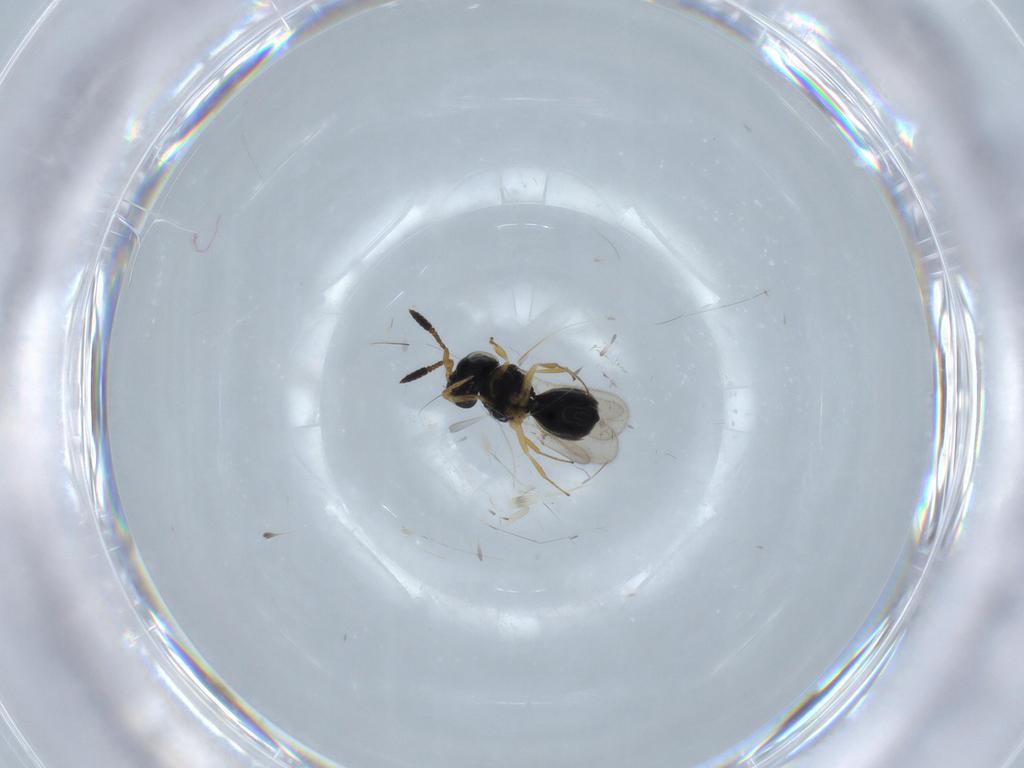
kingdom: Animalia
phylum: Arthropoda
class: Insecta
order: Hymenoptera
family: Scelionidae
